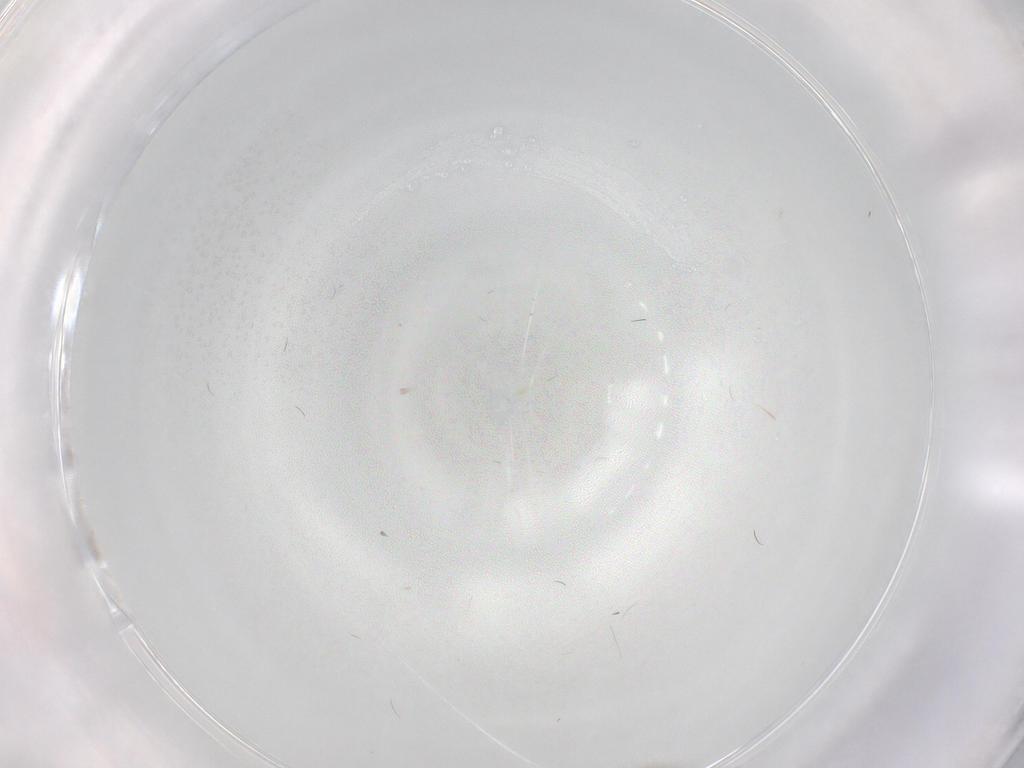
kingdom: Animalia
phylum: Arthropoda
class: Insecta
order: Diptera
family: Chironomidae
